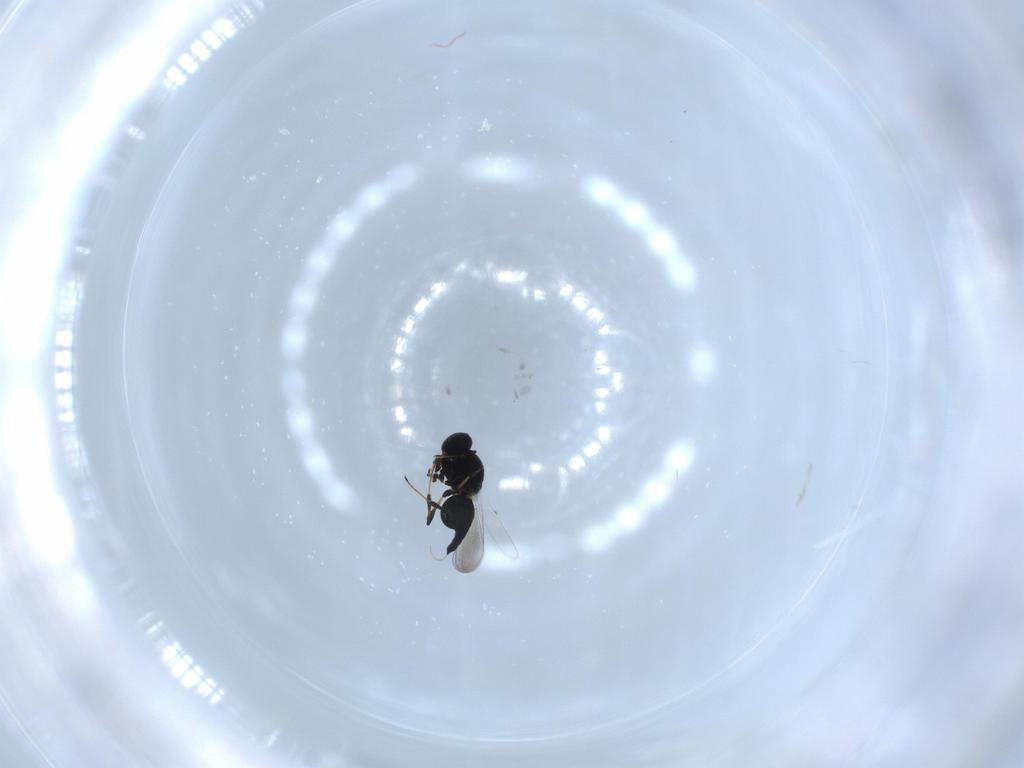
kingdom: Animalia
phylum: Arthropoda
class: Insecta
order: Hymenoptera
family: Platygastridae
